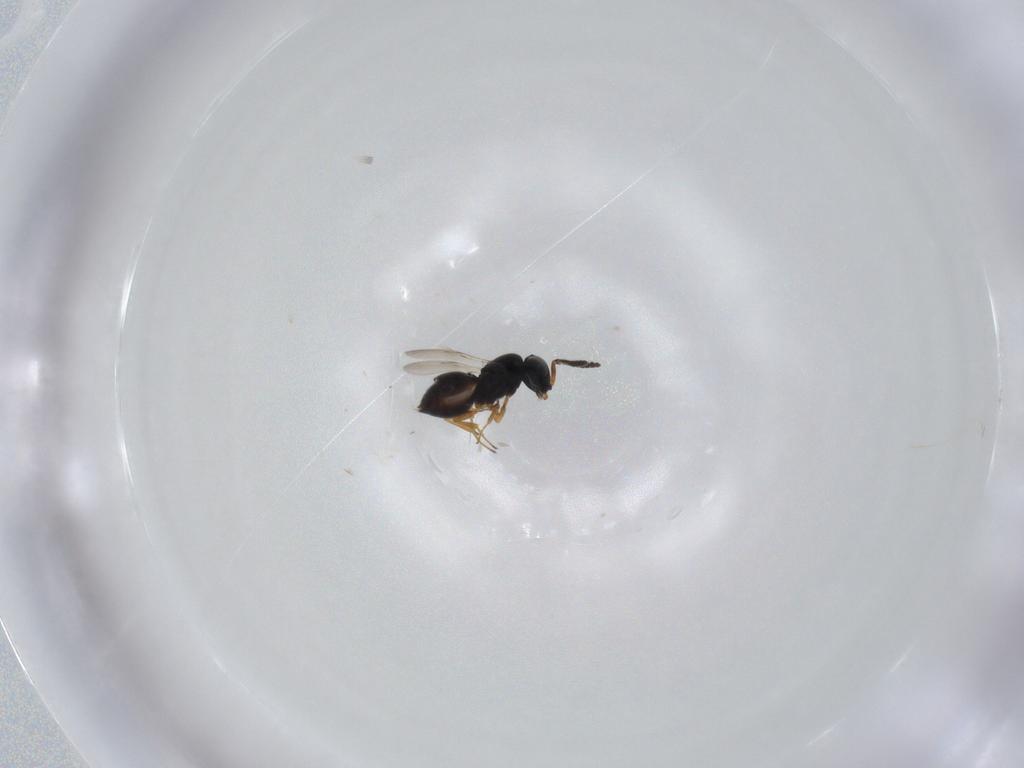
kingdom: Animalia
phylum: Arthropoda
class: Insecta
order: Hymenoptera
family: Scelionidae
